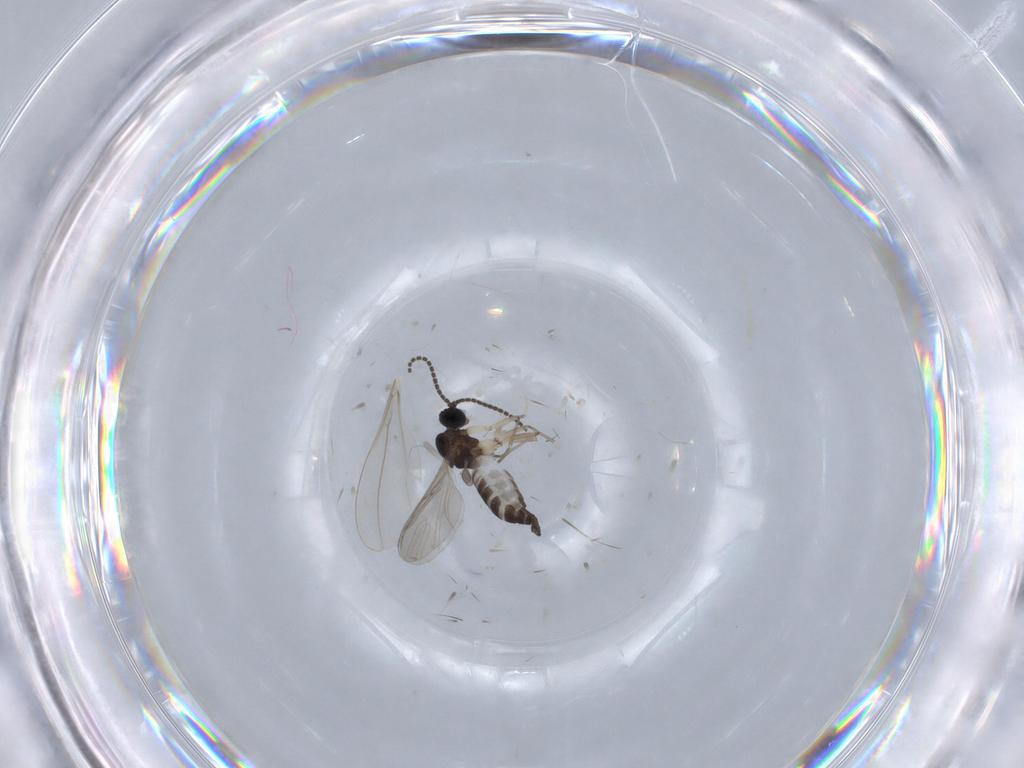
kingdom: Animalia
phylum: Arthropoda
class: Insecta
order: Diptera
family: Sciaridae
